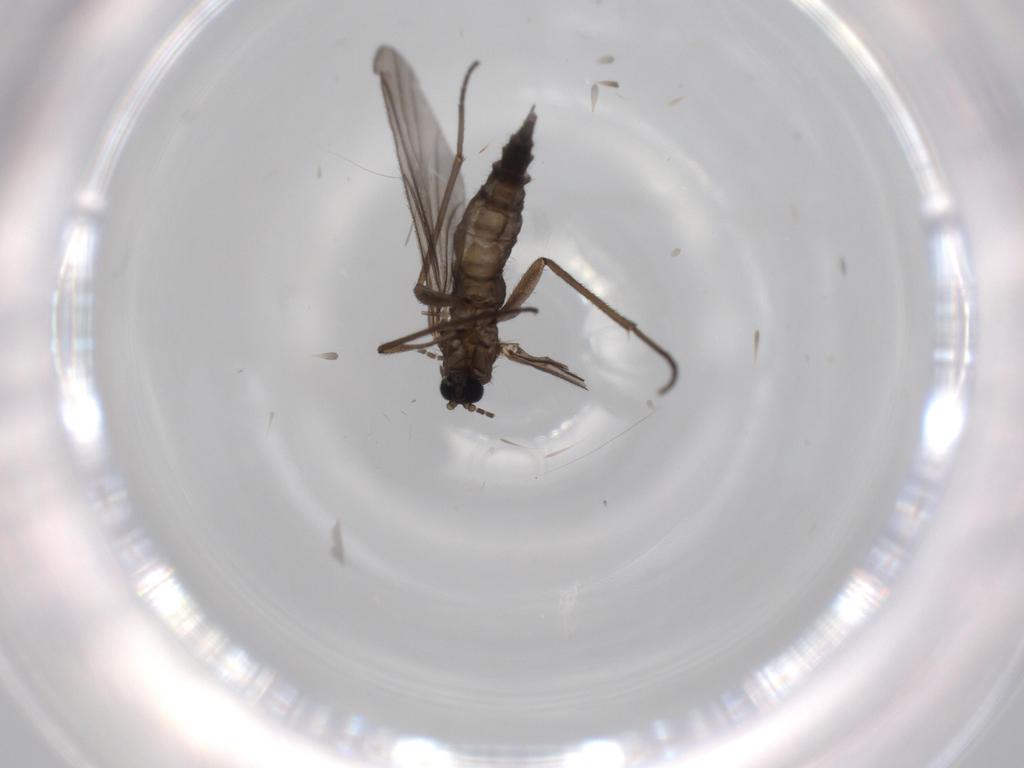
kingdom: Animalia
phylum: Arthropoda
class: Insecta
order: Diptera
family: Sciaridae
